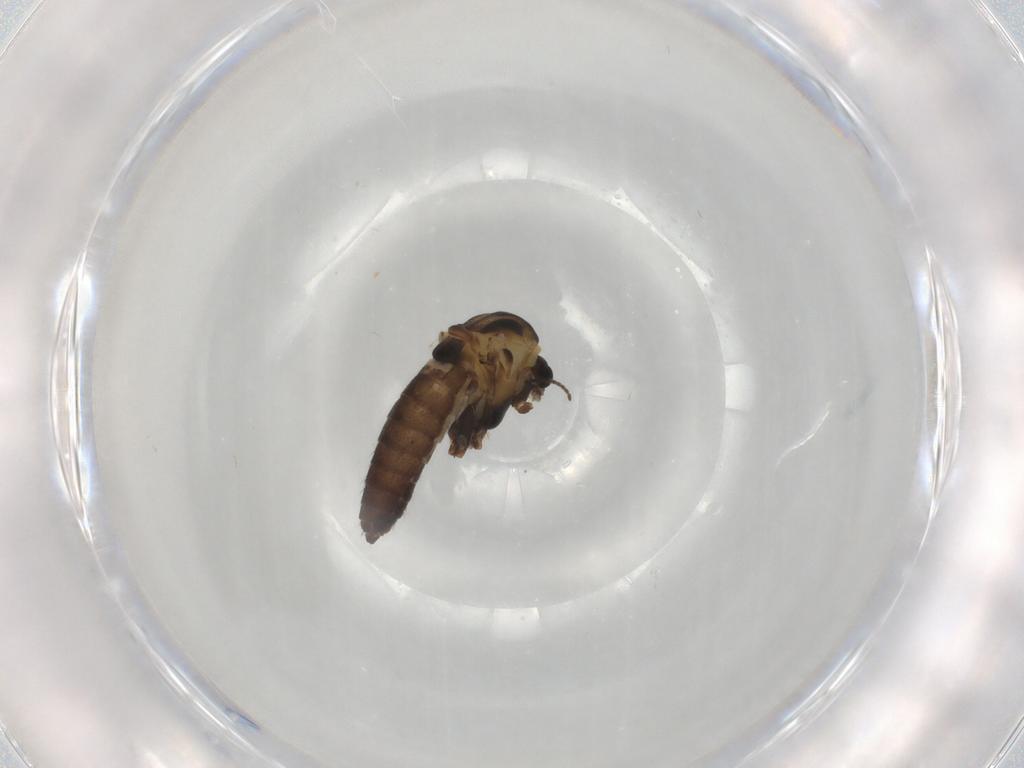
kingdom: Animalia
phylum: Arthropoda
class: Insecta
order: Diptera
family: Chironomidae
